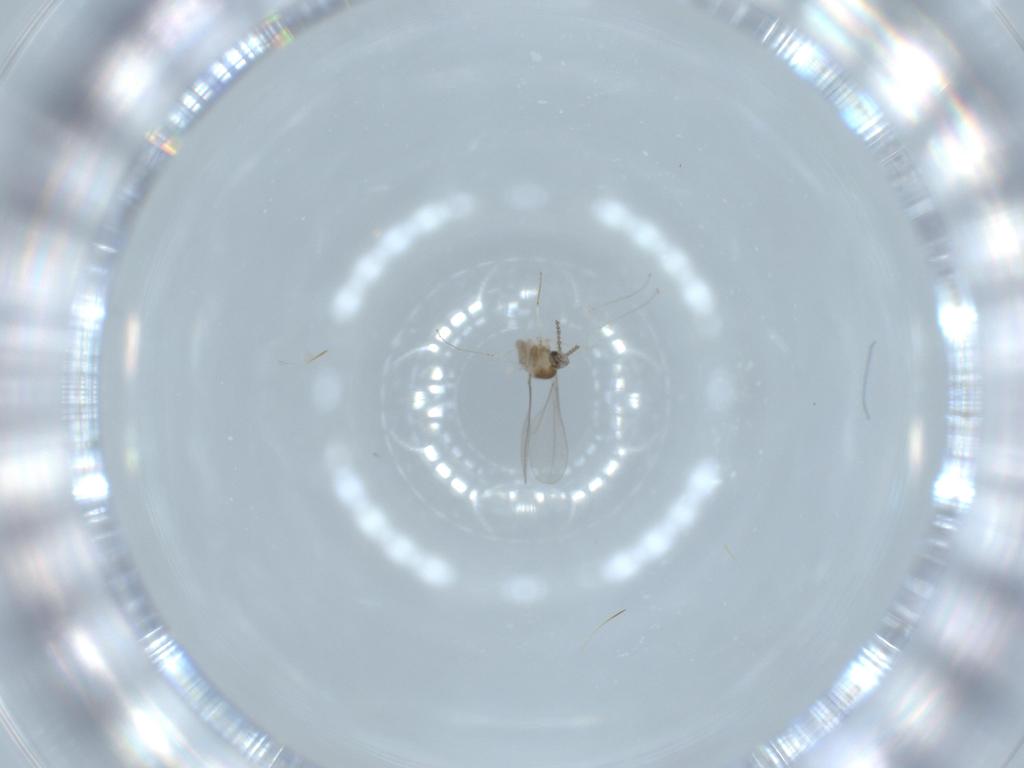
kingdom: Animalia
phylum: Arthropoda
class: Insecta
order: Diptera
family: Cecidomyiidae
